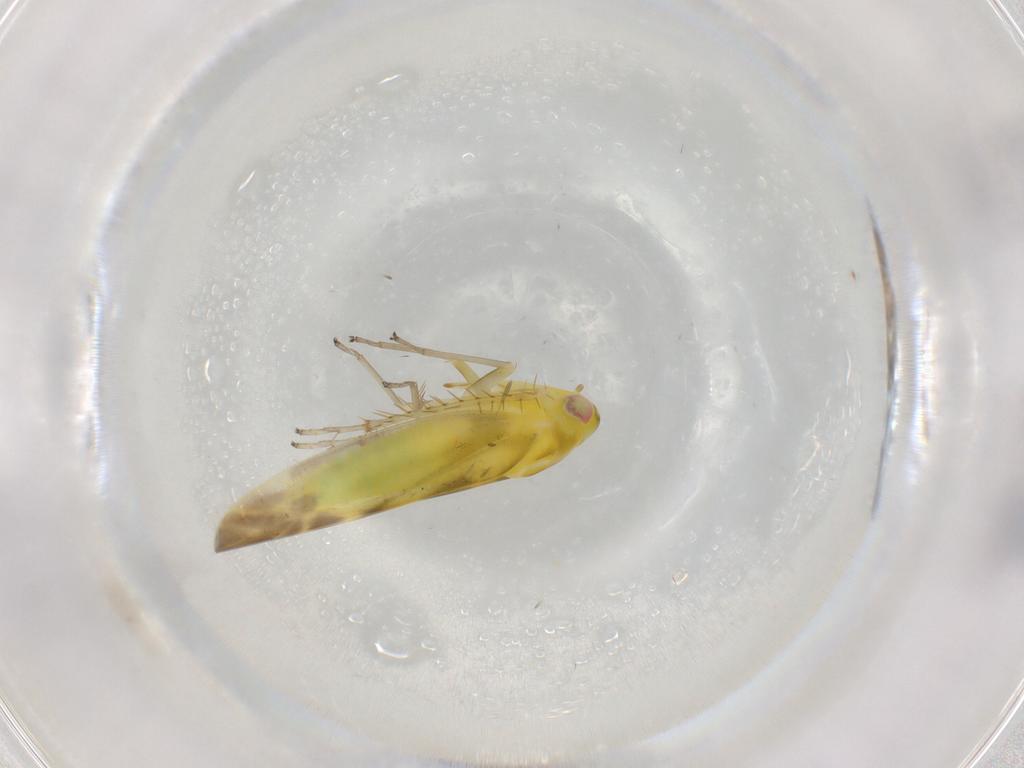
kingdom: Animalia
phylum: Arthropoda
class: Insecta
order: Hemiptera
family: Cicadellidae
